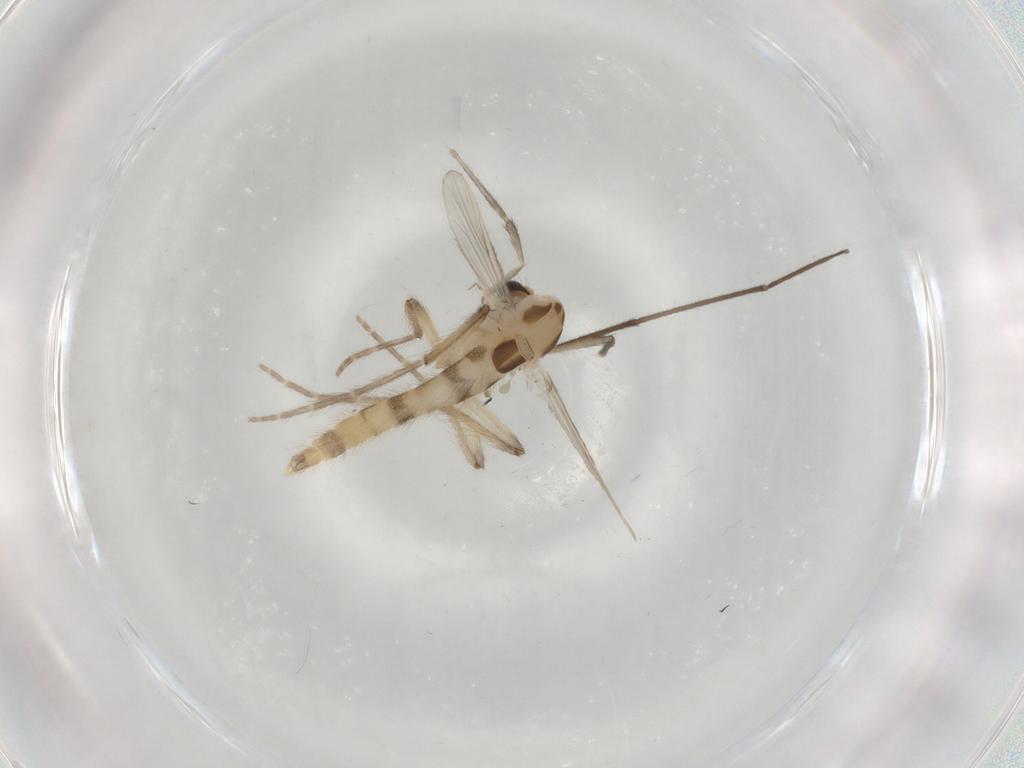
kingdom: Animalia
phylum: Arthropoda
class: Insecta
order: Diptera
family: Chironomidae
